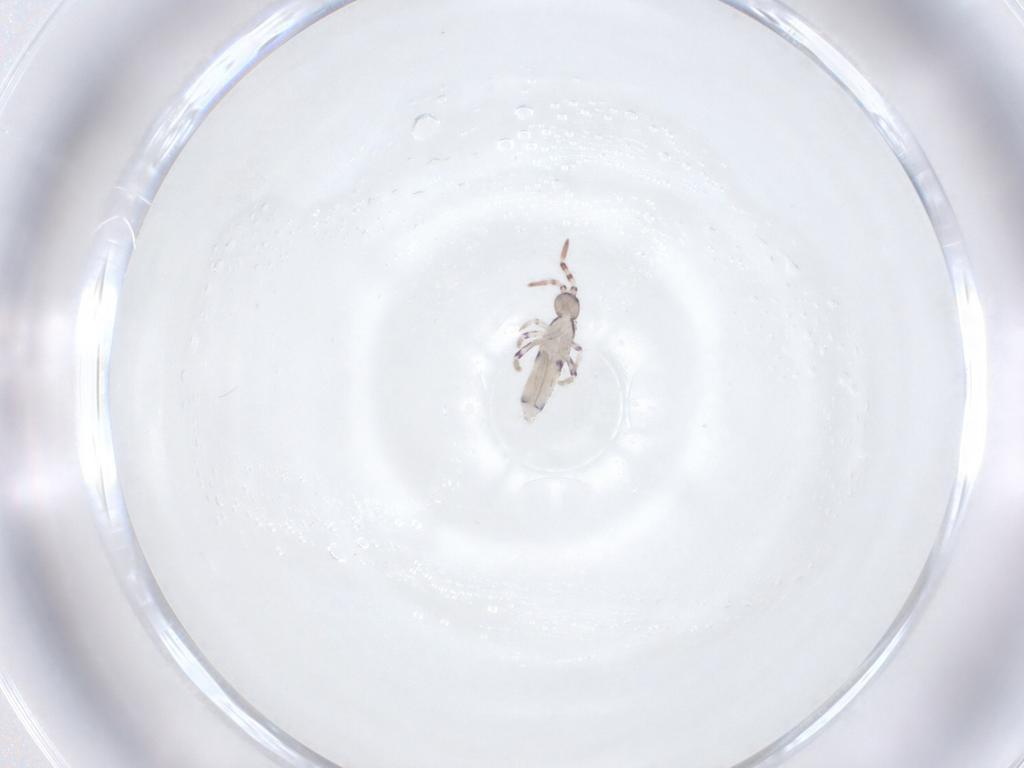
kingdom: Animalia
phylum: Arthropoda
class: Collembola
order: Entomobryomorpha
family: Entomobryidae
